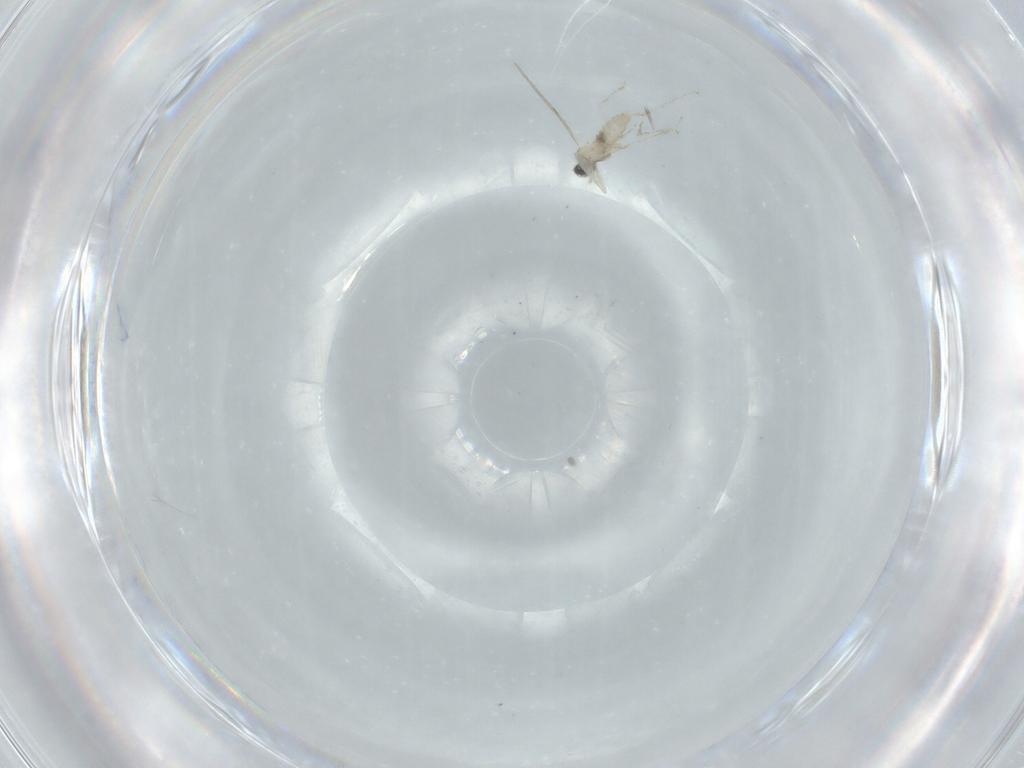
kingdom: Animalia
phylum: Arthropoda
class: Insecta
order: Diptera
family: Cecidomyiidae
